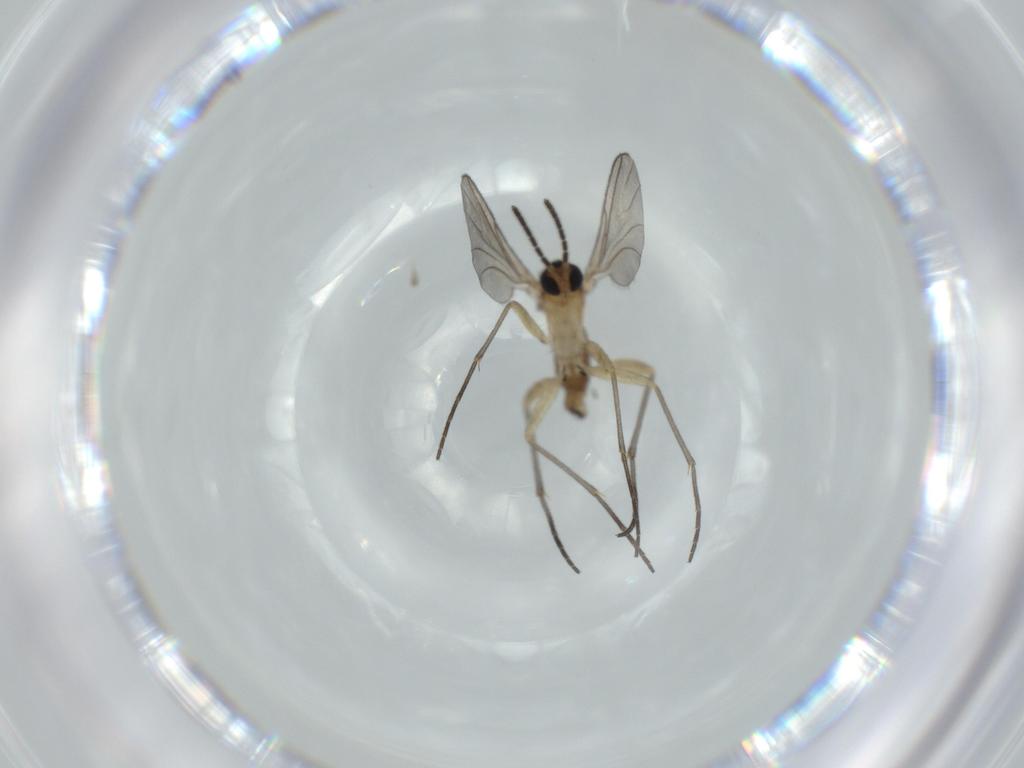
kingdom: Animalia
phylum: Arthropoda
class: Insecta
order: Diptera
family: Sciaridae
